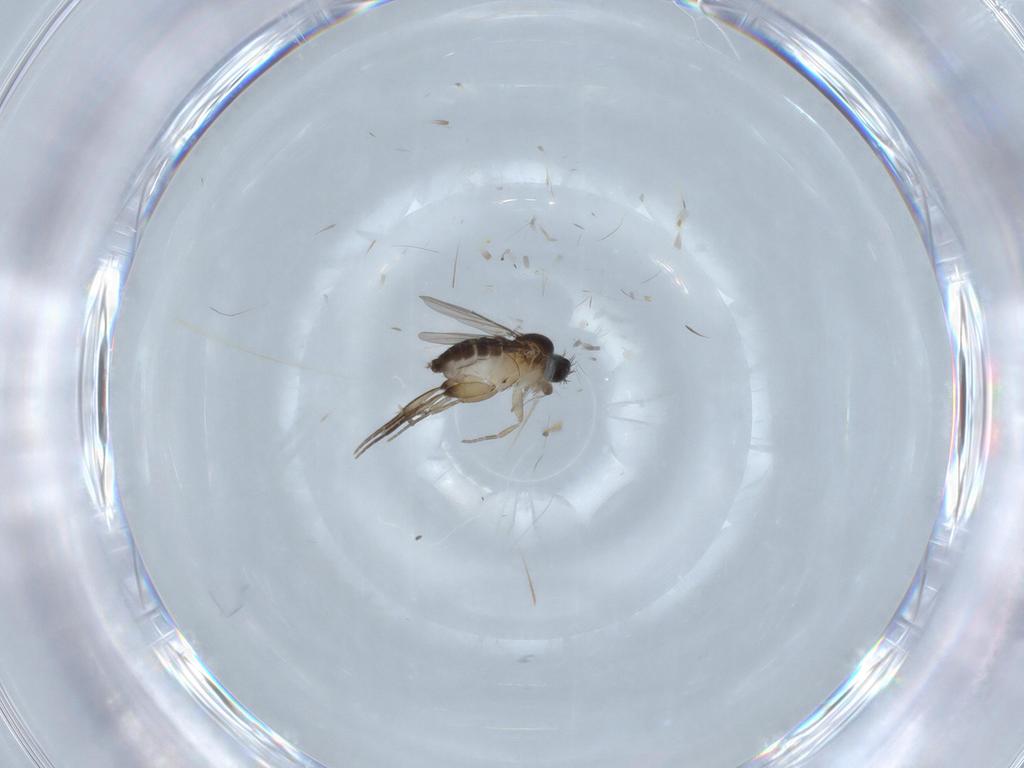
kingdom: Animalia
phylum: Arthropoda
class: Insecta
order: Diptera
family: Phoridae
